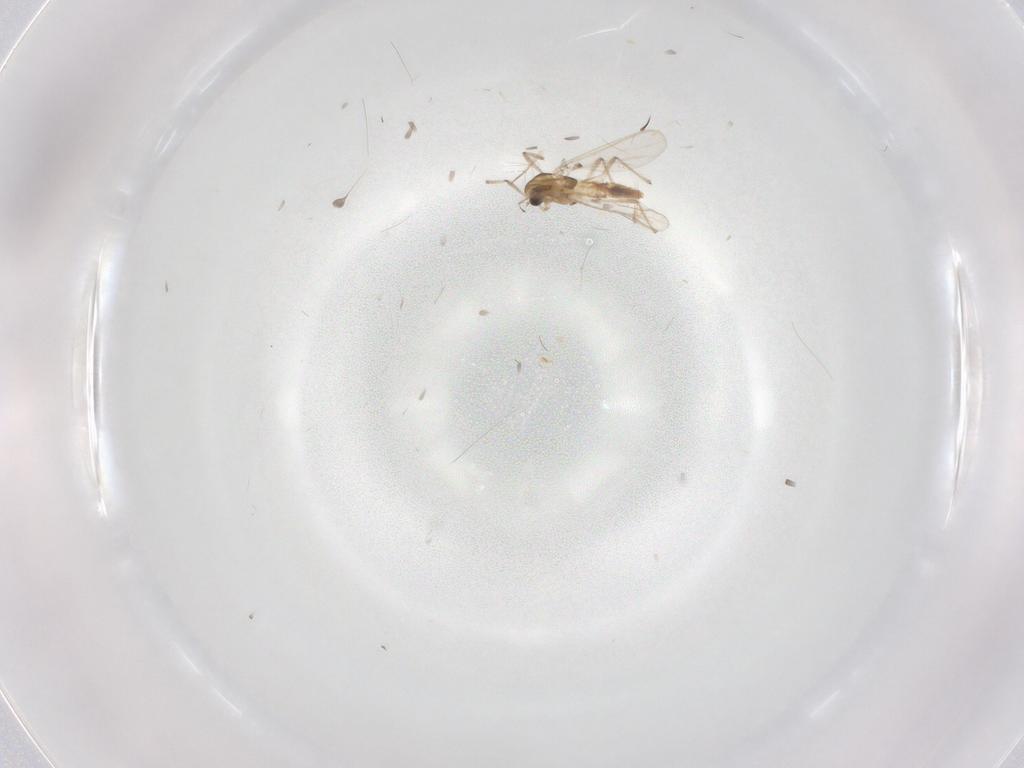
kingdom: Animalia
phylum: Arthropoda
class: Insecta
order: Diptera
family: Chironomidae
